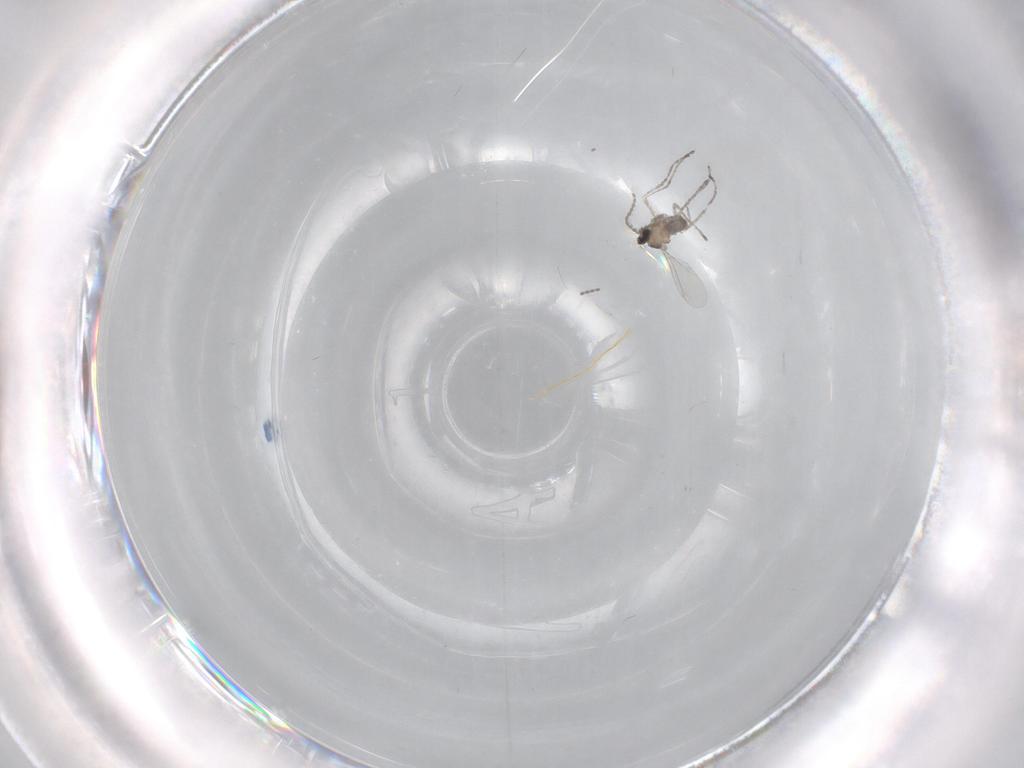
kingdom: Animalia
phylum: Arthropoda
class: Insecta
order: Diptera
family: Cecidomyiidae
